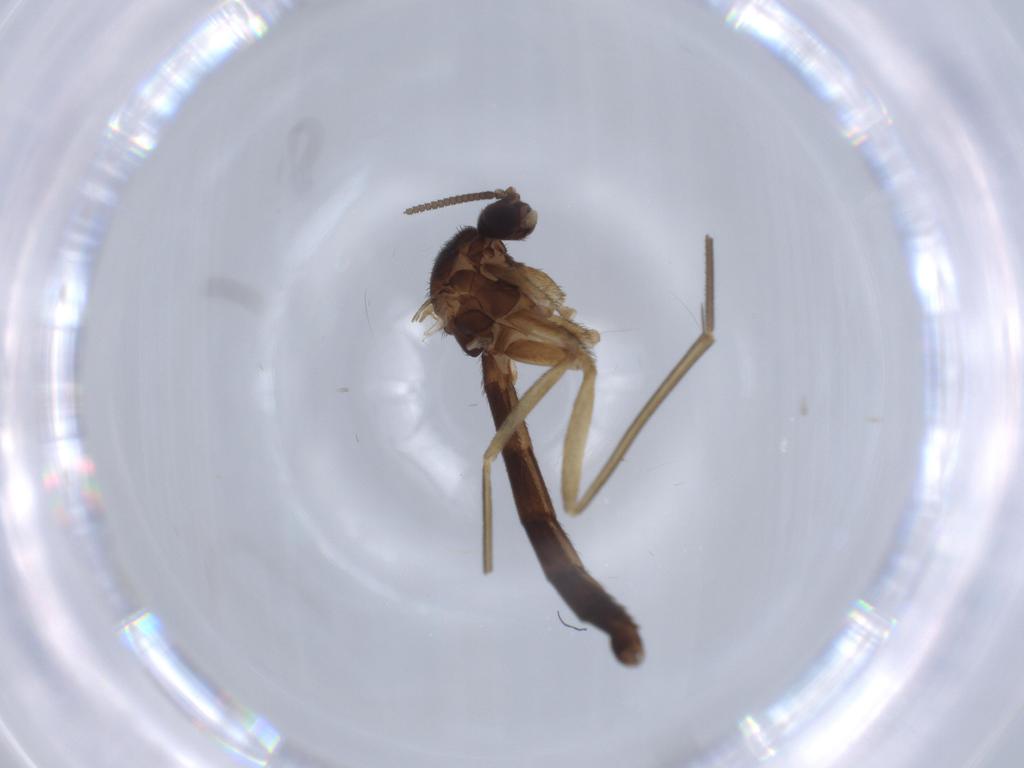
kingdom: Animalia
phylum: Arthropoda
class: Insecta
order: Diptera
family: Keroplatidae
